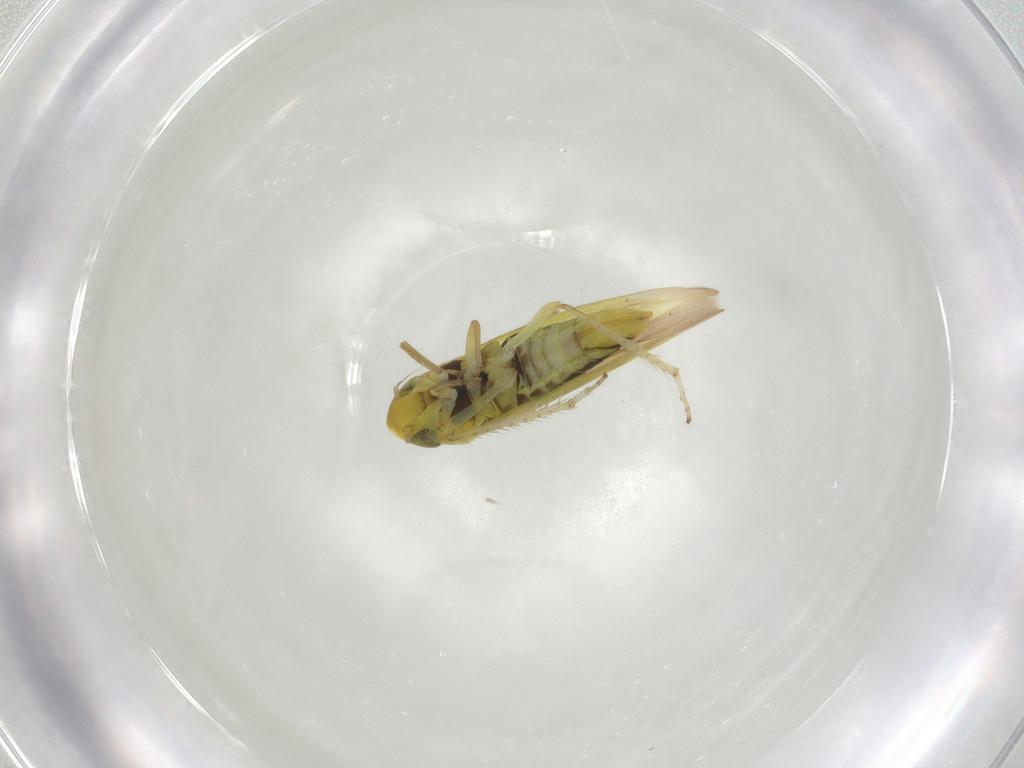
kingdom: Animalia
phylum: Arthropoda
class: Insecta
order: Hemiptera
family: Cicadellidae
